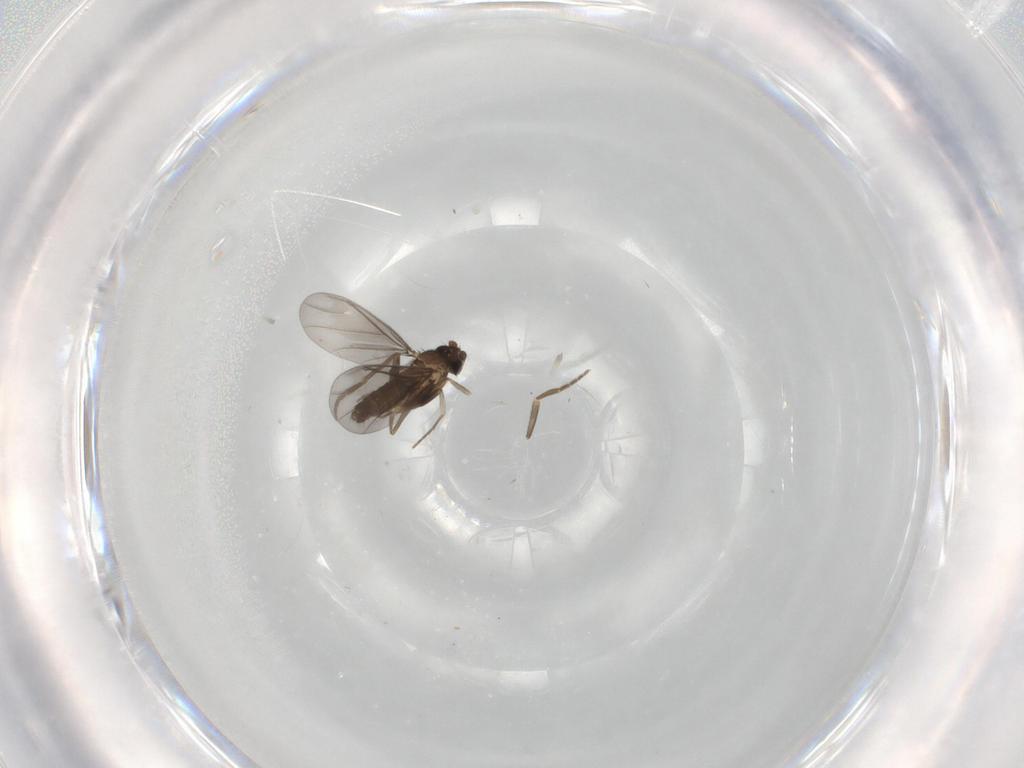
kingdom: Animalia
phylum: Arthropoda
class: Insecta
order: Diptera
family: Phoridae
